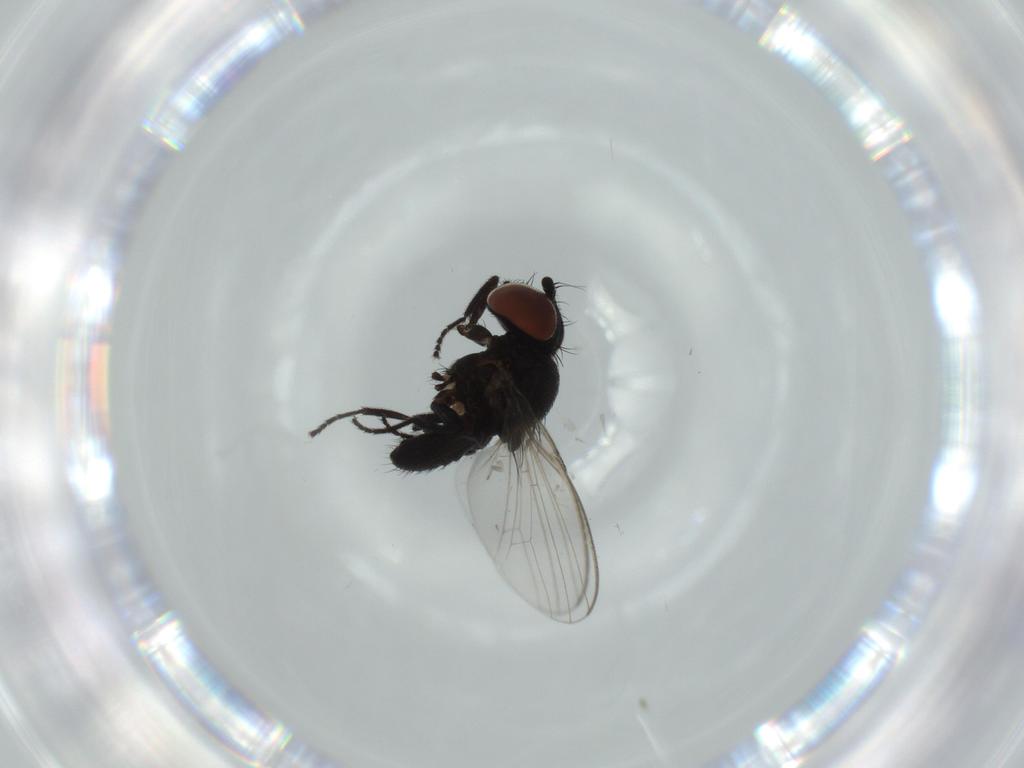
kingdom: Animalia
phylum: Arthropoda
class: Insecta
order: Diptera
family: Milichiidae
